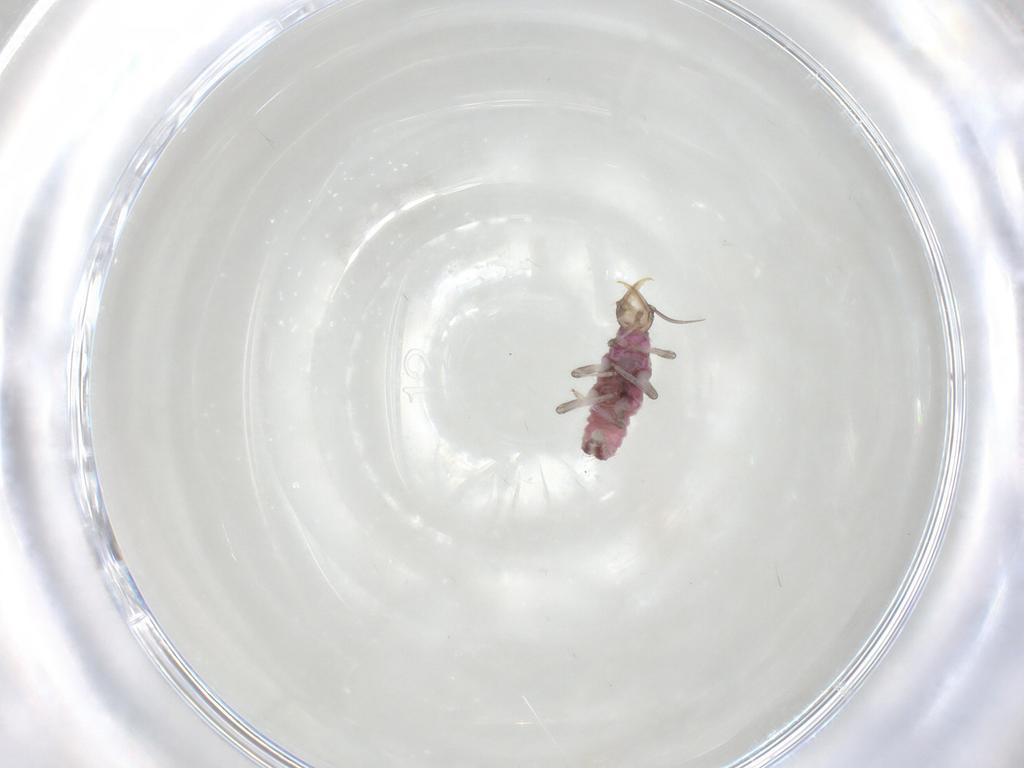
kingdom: Animalia
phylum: Arthropoda
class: Insecta
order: Neuroptera
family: Hemerobiidae
